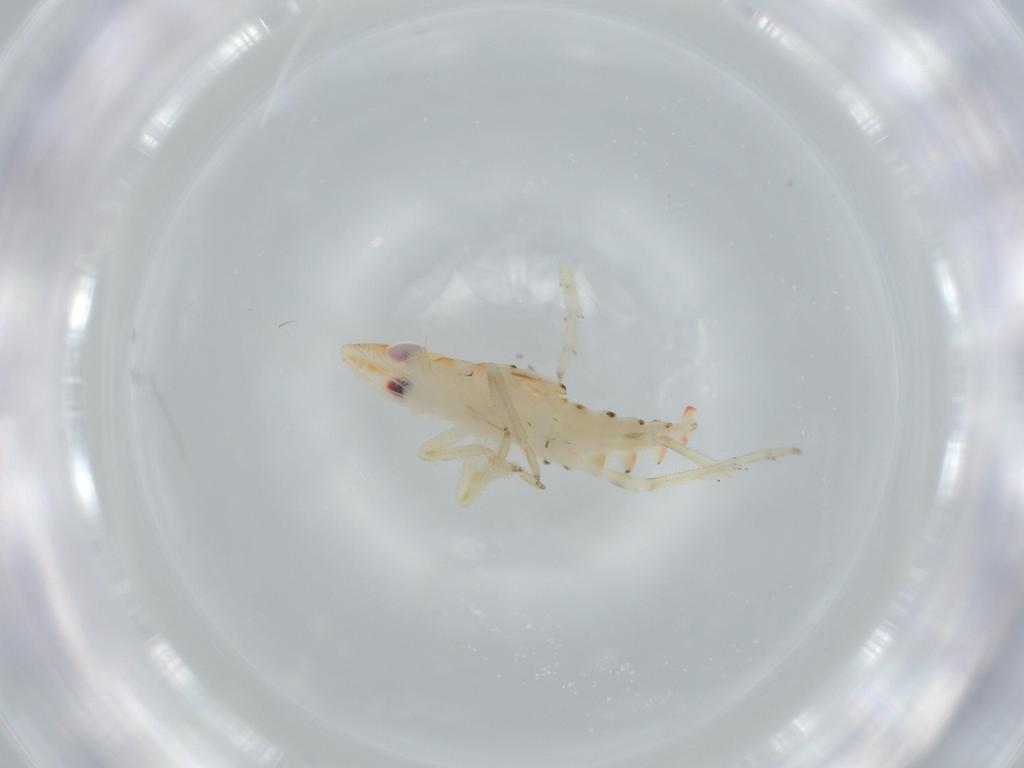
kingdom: Animalia
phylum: Arthropoda
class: Insecta
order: Hemiptera
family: Tropiduchidae
